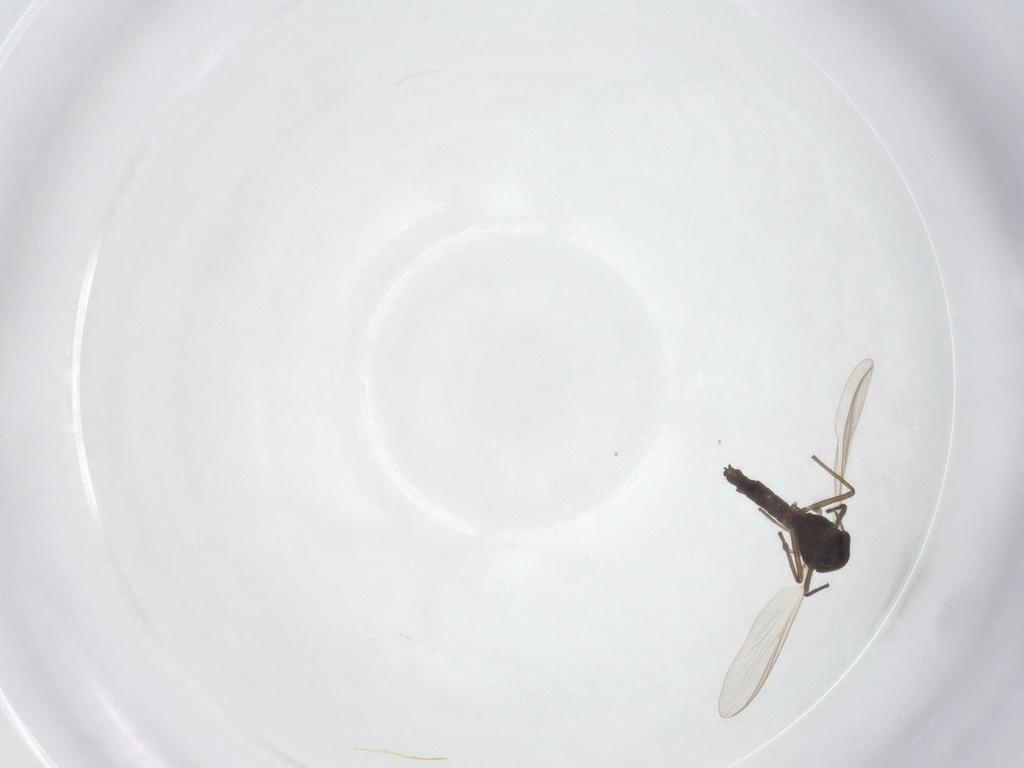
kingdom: Animalia
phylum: Arthropoda
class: Insecta
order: Diptera
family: Chironomidae
